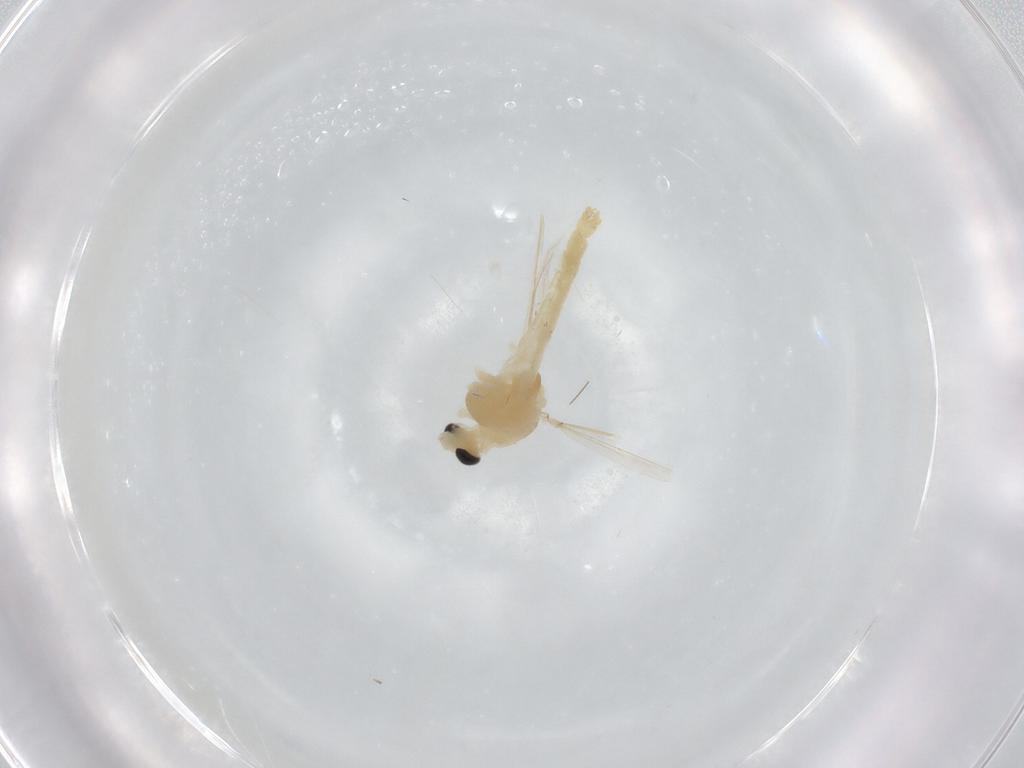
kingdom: Animalia
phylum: Arthropoda
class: Insecta
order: Diptera
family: Chironomidae
